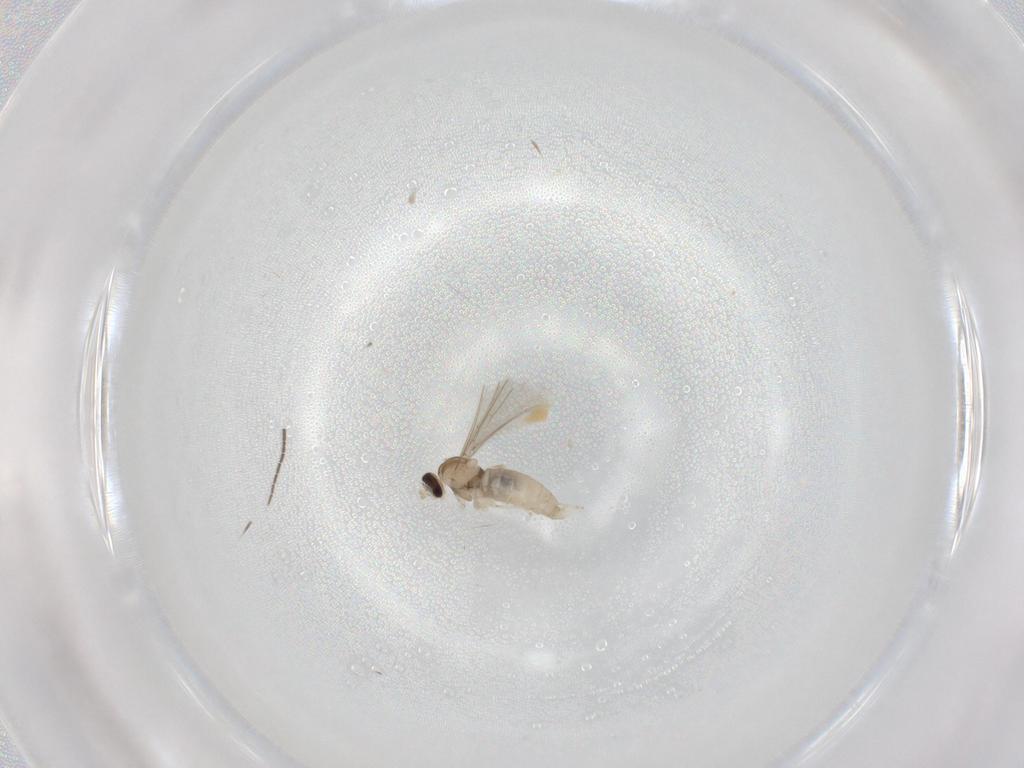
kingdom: Animalia
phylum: Arthropoda
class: Insecta
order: Diptera
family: Cecidomyiidae
